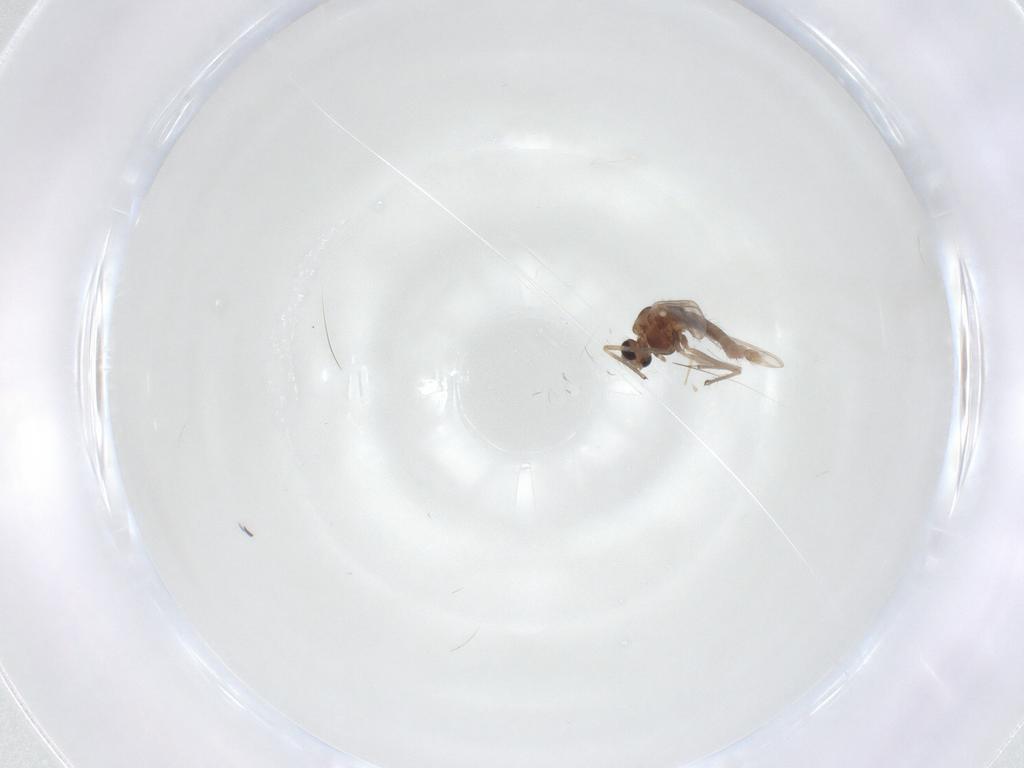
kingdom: Animalia
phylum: Arthropoda
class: Insecta
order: Diptera
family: Chironomidae
